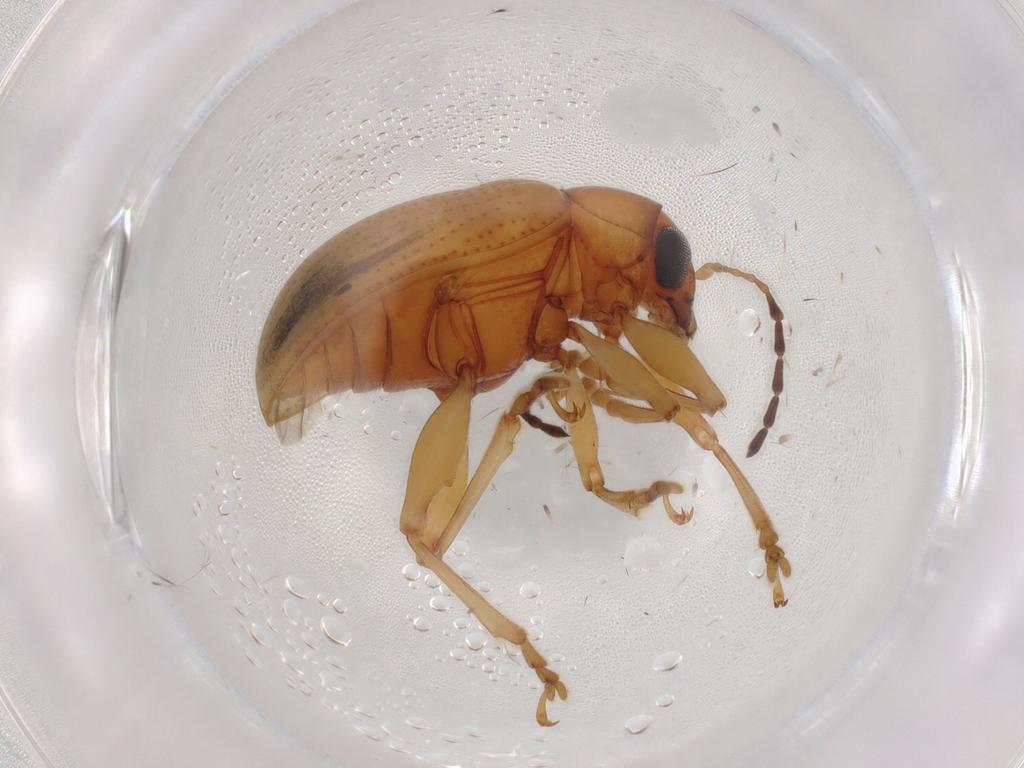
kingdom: Animalia
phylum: Arthropoda
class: Insecta
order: Coleoptera
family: Chrysomelidae
